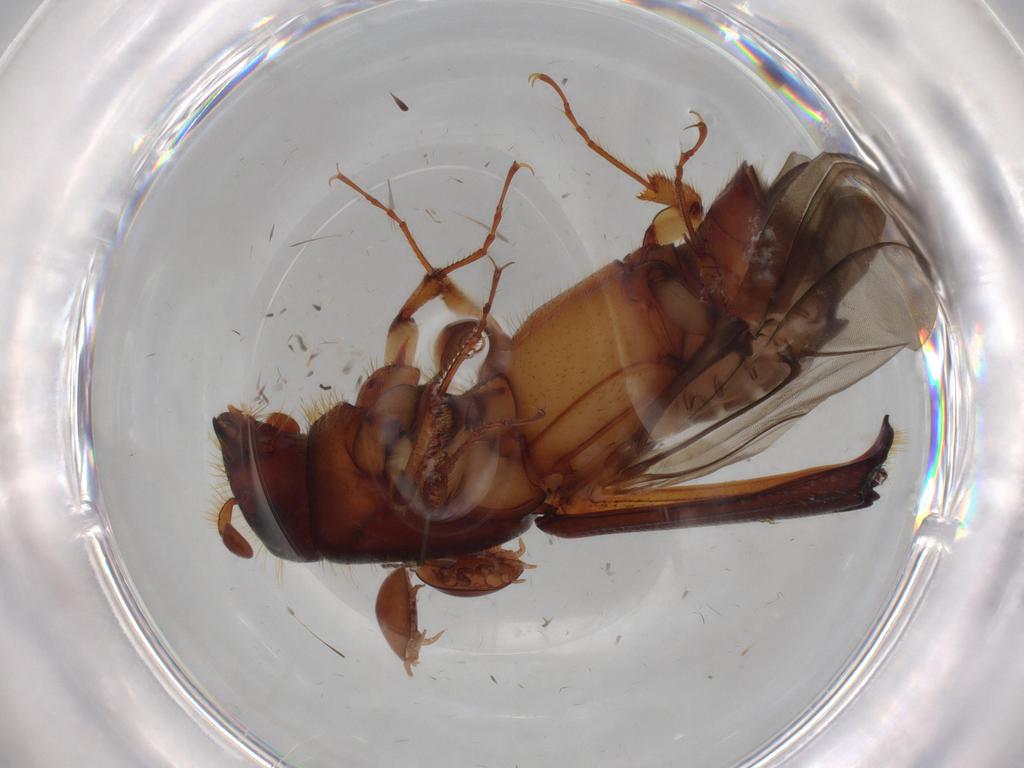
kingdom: Animalia
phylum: Arthropoda
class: Insecta
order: Coleoptera
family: Curculionidae
